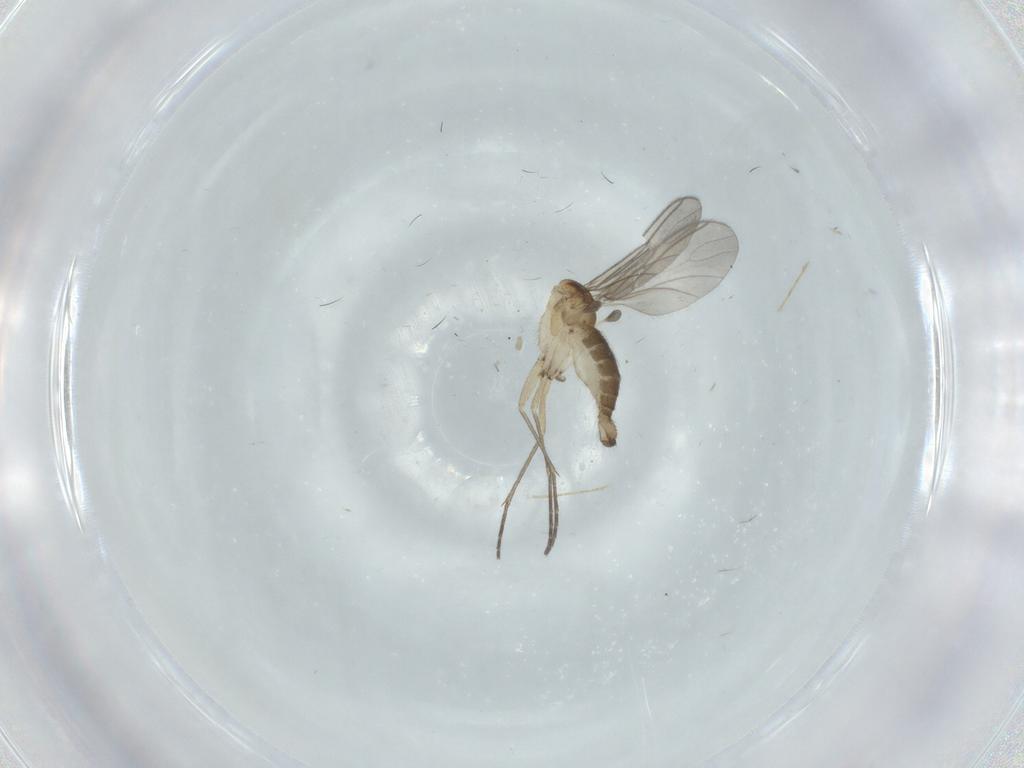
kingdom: Animalia
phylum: Arthropoda
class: Insecta
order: Diptera
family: Sciaridae
